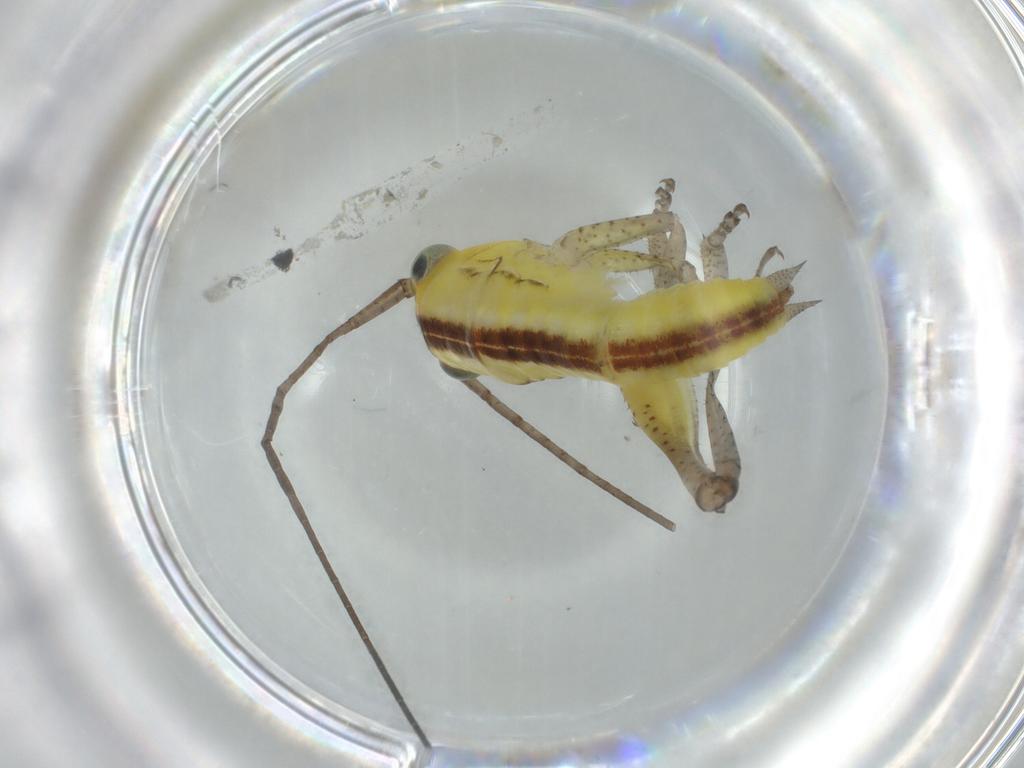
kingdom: Animalia
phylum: Arthropoda
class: Insecta
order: Orthoptera
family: Tettigoniidae
